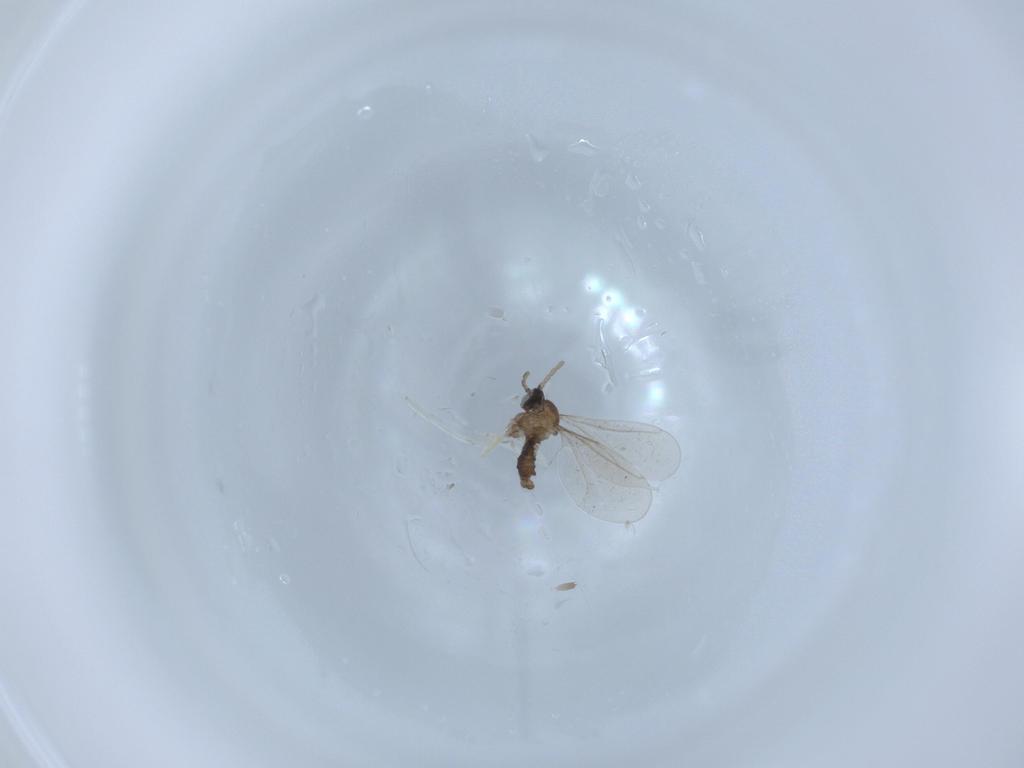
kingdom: Animalia
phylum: Arthropoda
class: Insecta
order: Diptera
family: Cecidomyiidae
